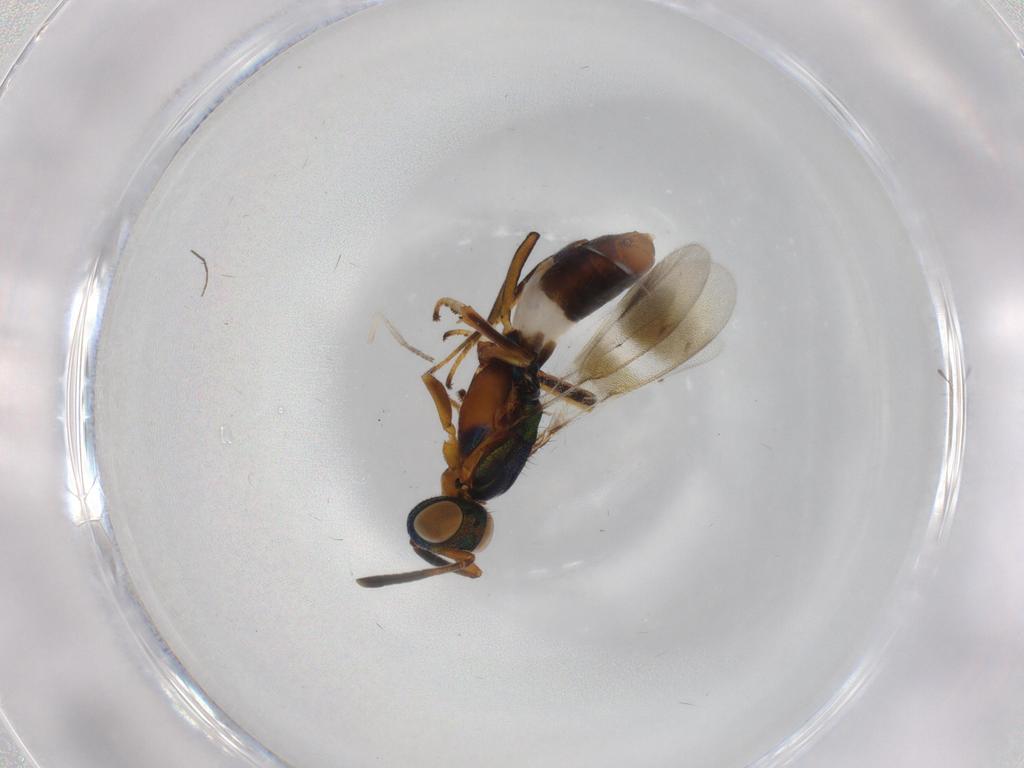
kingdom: Animalia
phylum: Arthropoda
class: Insecta
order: Hymenoptera
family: Eupelmidae
